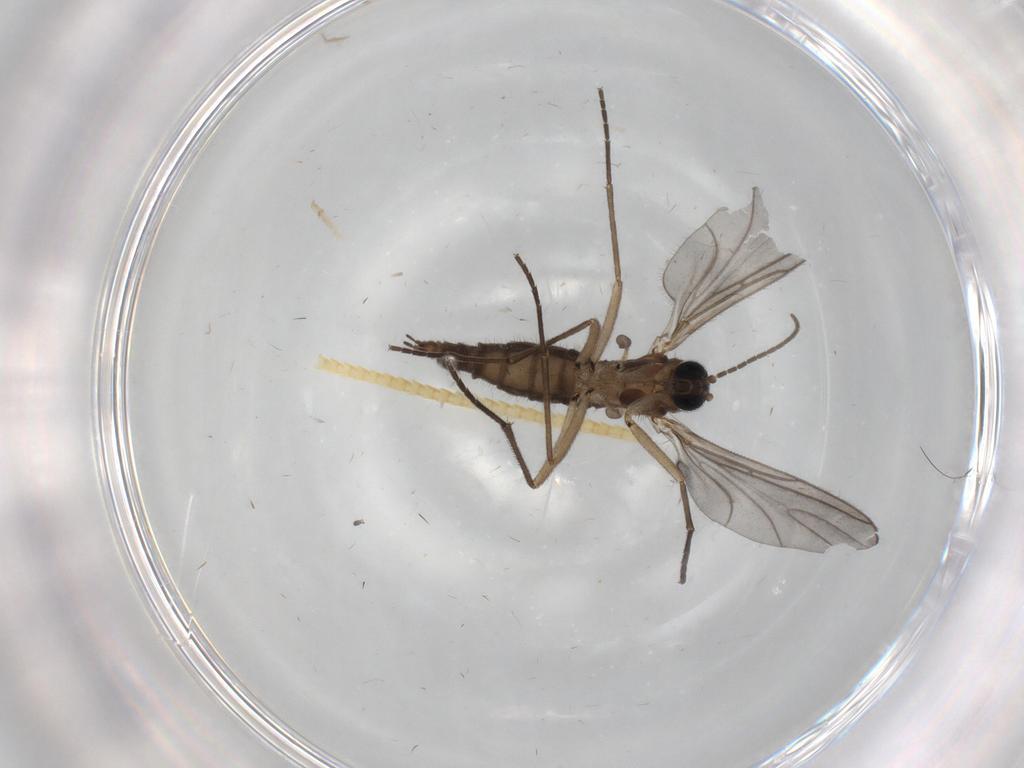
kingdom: Animalia
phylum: Arthropoda
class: Insecta
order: Diptera
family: Sciaridae
